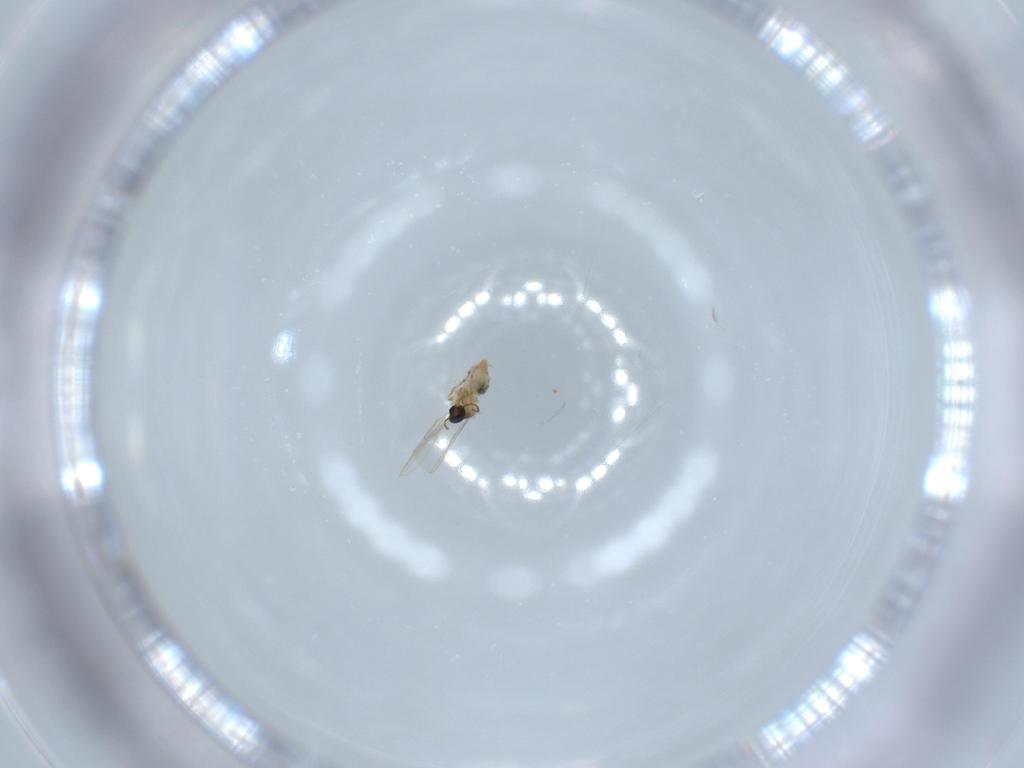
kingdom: Animalia
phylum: Arthropoda
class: Insecta
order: Diptera
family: Cecidomyiidae
